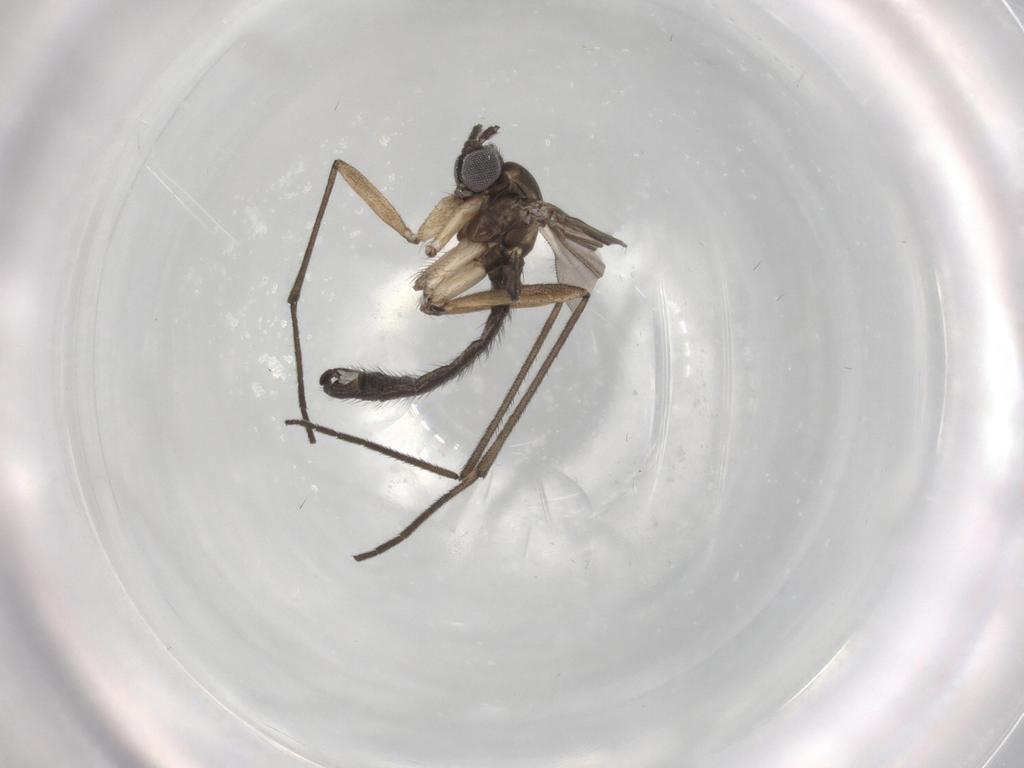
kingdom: Animalia
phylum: Arthropoda
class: Insecta
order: Diptera
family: Sciaridae
